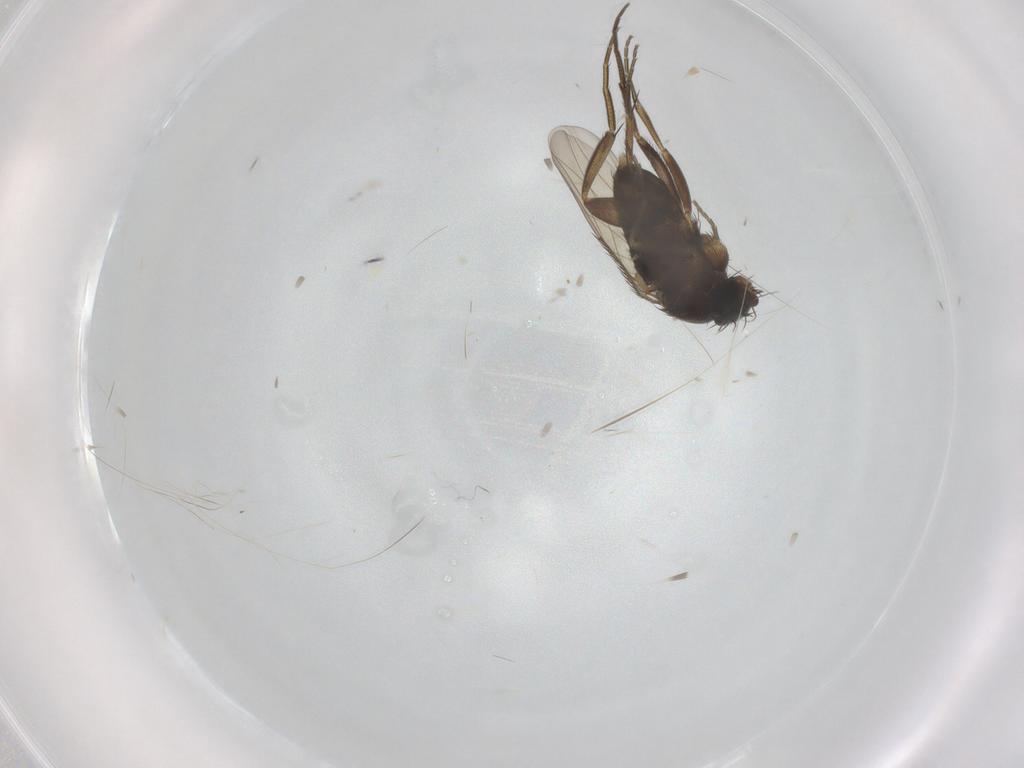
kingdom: Animalia
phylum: Arthropoda
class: Insecta
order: Diptera
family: Phoridae
